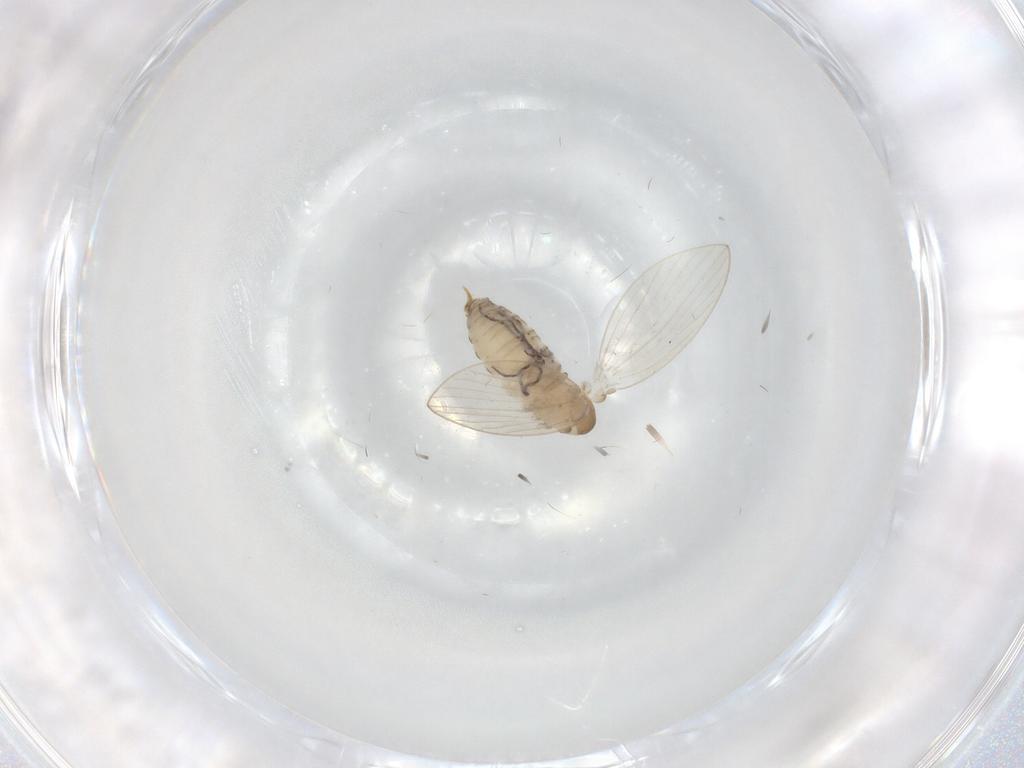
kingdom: Animalia
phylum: Arthropoda
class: Insecta
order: Diptera
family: Psychodidae
